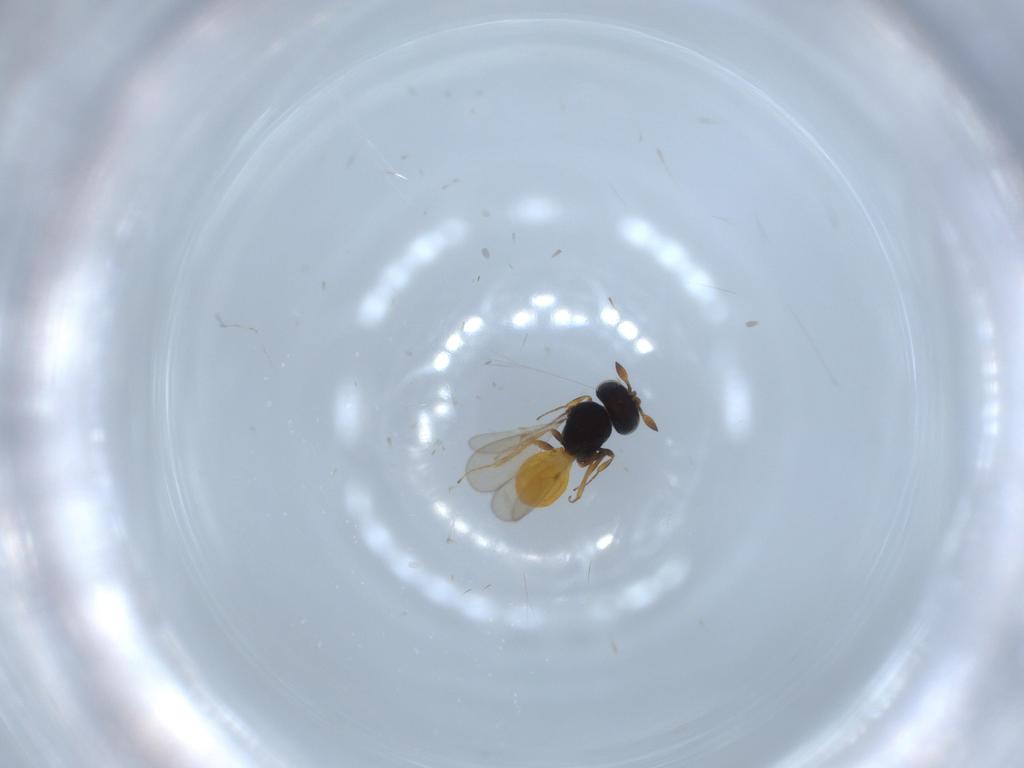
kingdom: Animalia
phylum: Arthropoda
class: Insecta
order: Hymenoptera
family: Scelionidae
